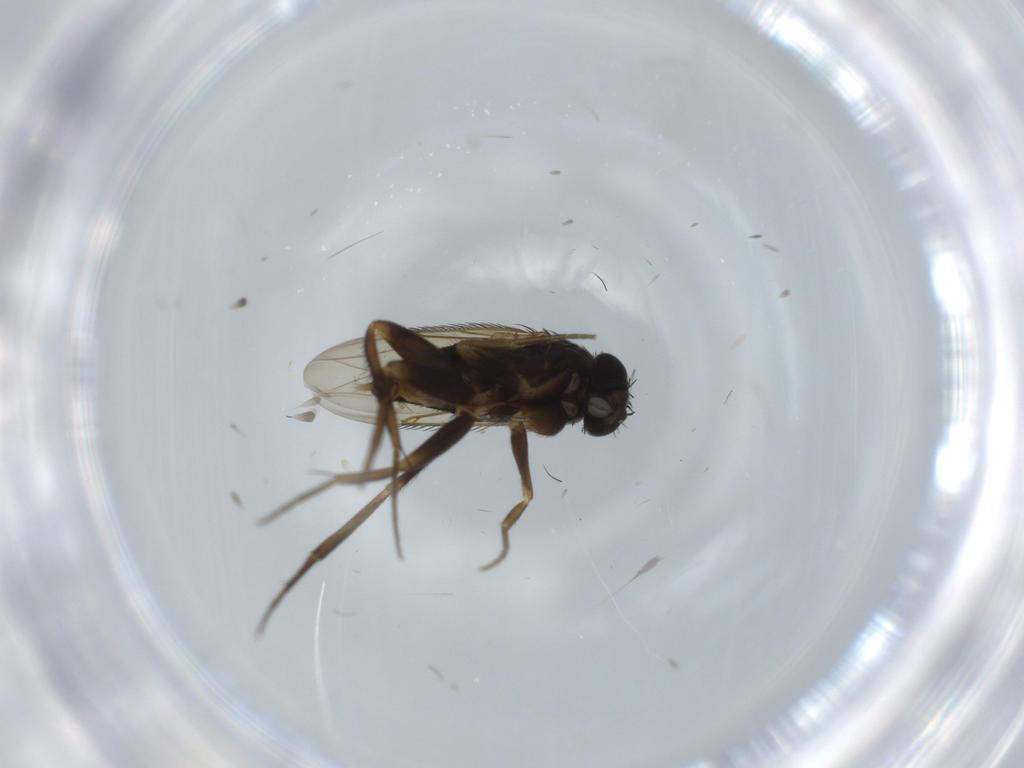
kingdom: Animalia
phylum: Arthropoda
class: Insecta
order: Diptera
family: Phoridae
